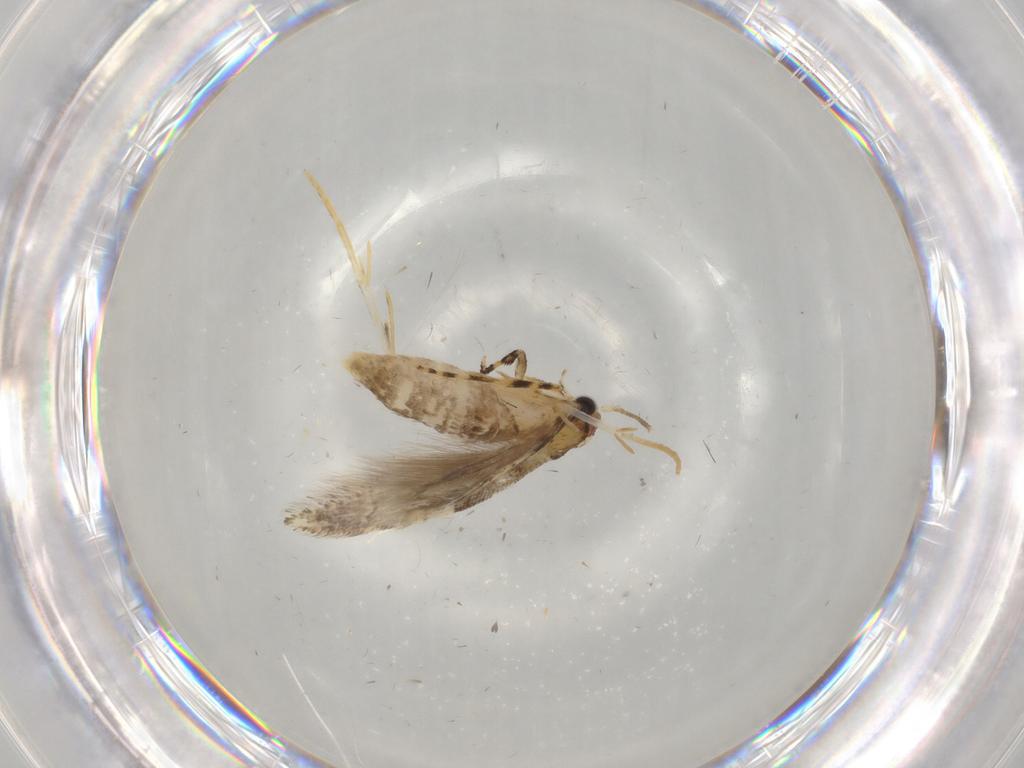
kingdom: Animalia
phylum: Arthropoda
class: Insecta
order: Lepidoptera
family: Tineidae
